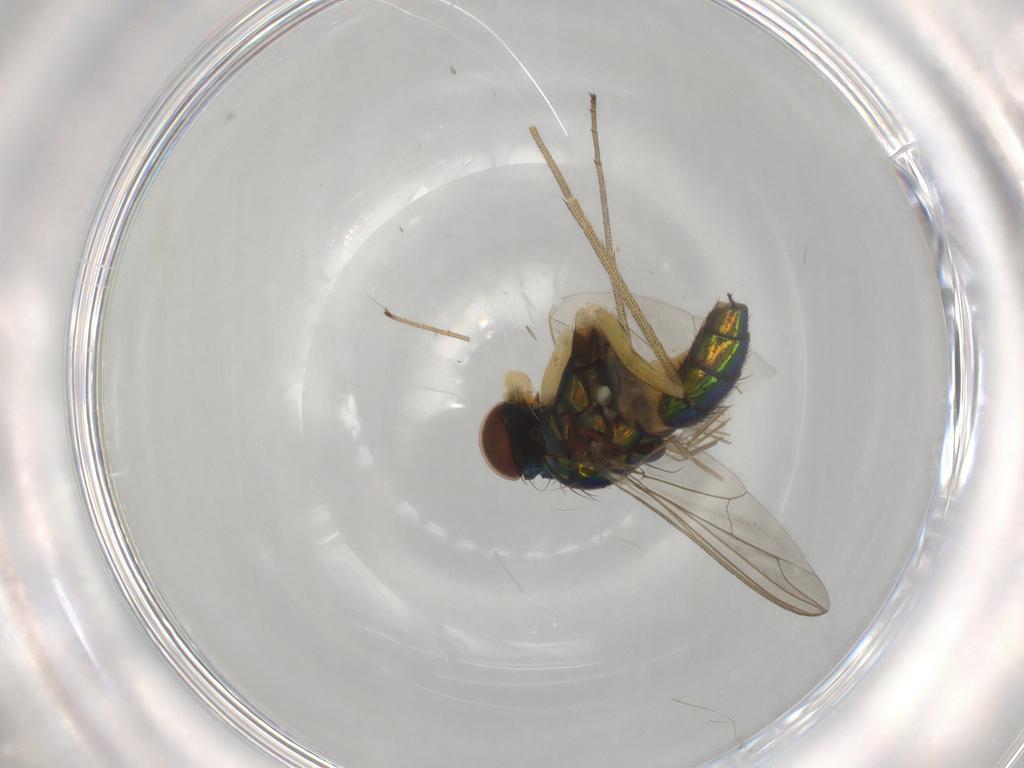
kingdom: Animalia
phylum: Arthropoda
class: Insecta
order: Diptera
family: Dolichopodidae
